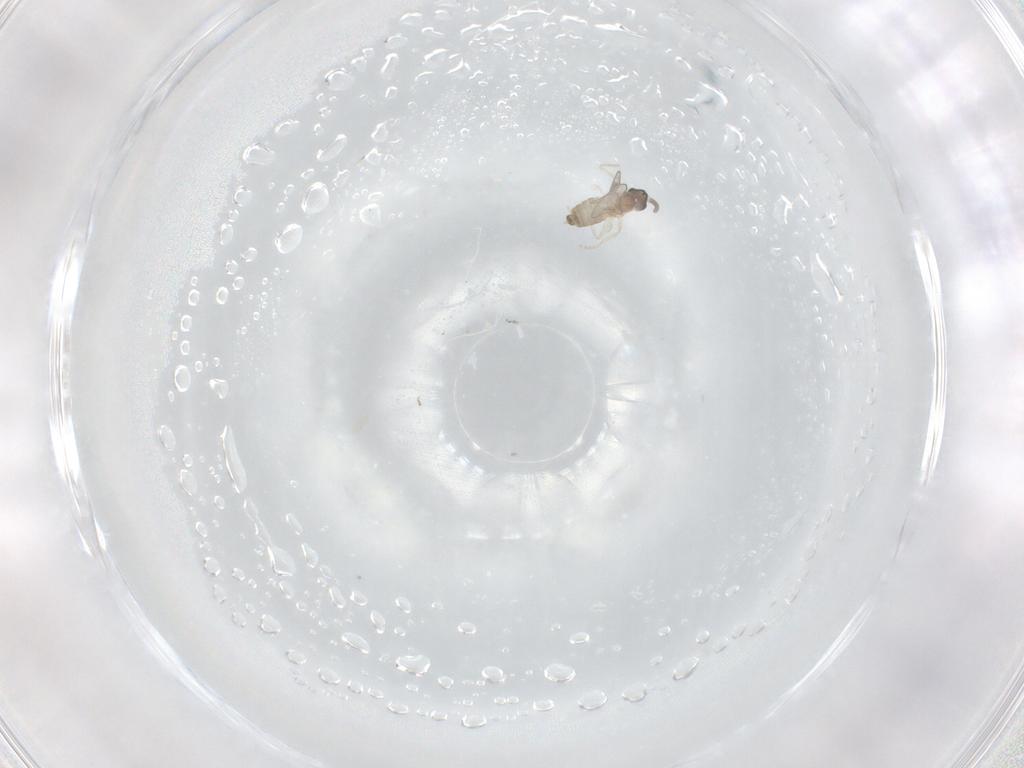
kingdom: Animalia
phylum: Arthropoda
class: Insecta
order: Diptera
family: Cecidomyiidae
